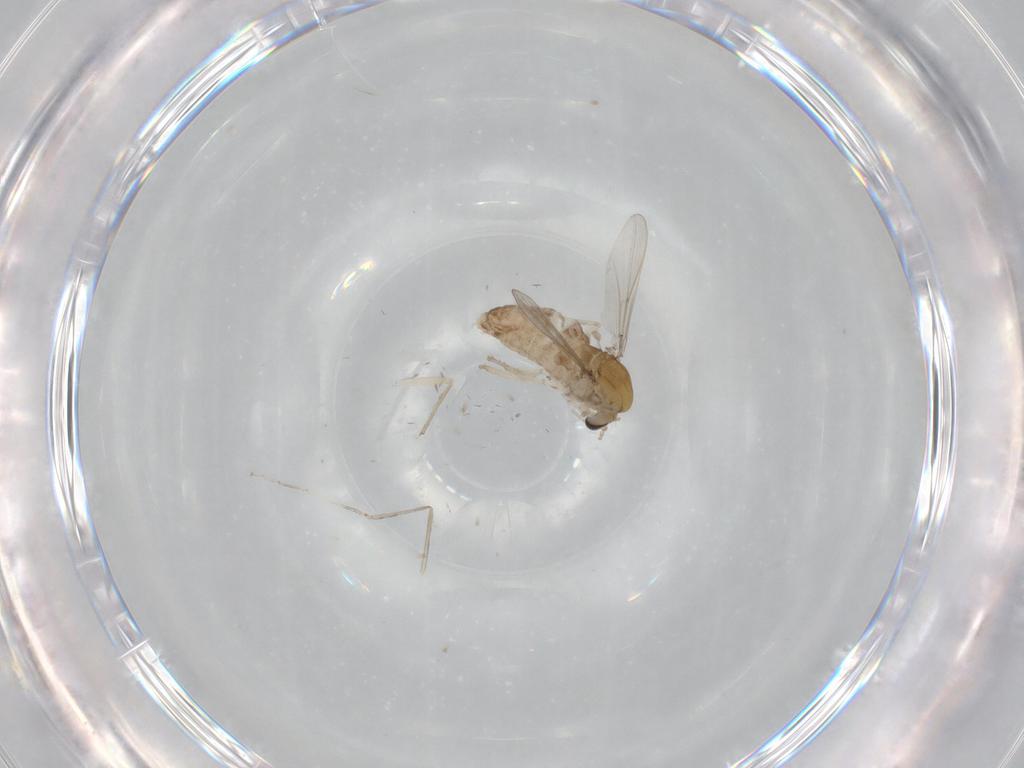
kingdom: Animalia
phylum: Arthropoda
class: Insecta
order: Diptera
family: Chironomidae
